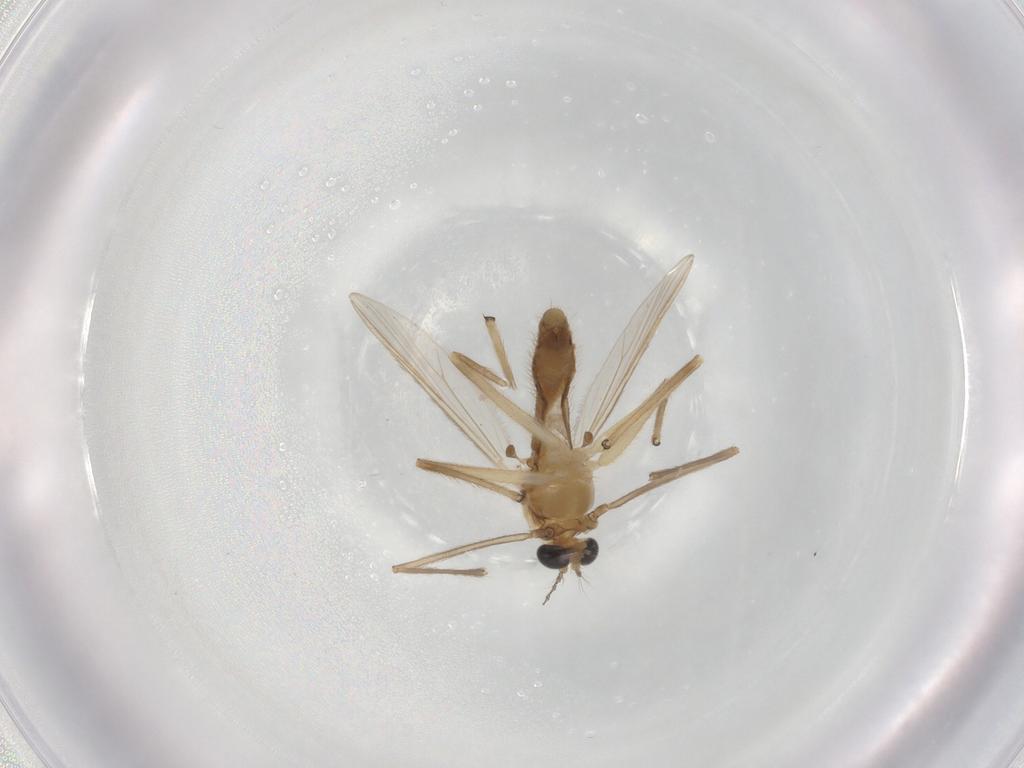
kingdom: Animalia
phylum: Arthropoda
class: Insecta
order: Diptera
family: Chironomidae
